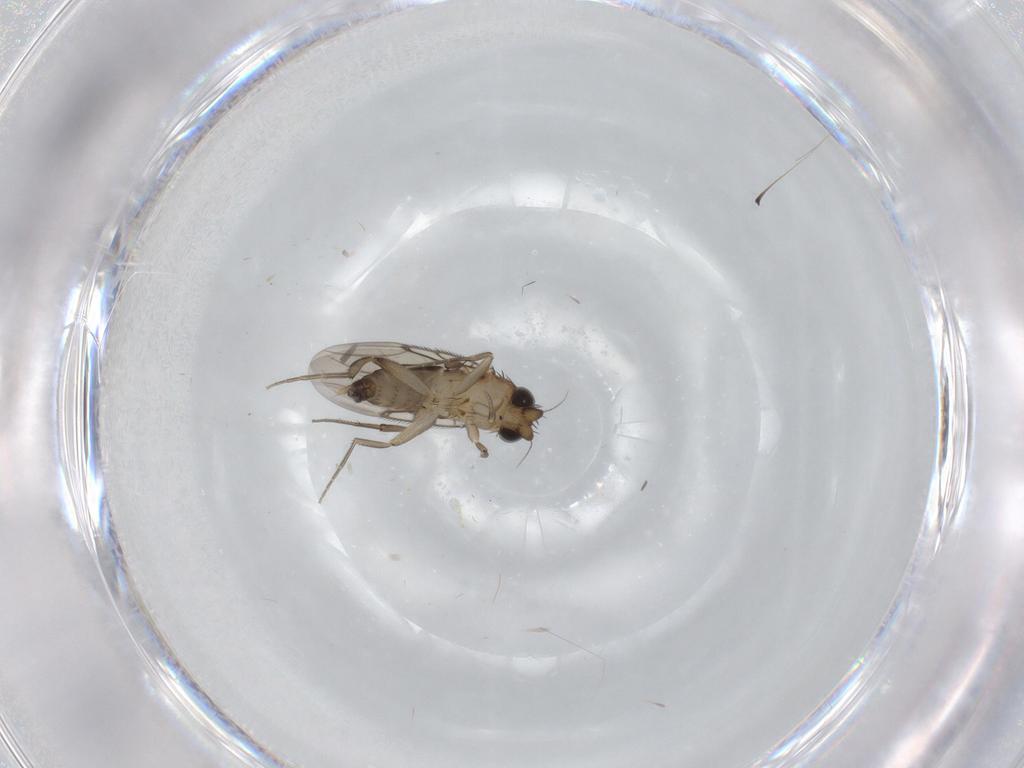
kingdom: Animalia
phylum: Arthropoda
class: Insecta
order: Diptera
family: Phoridae
